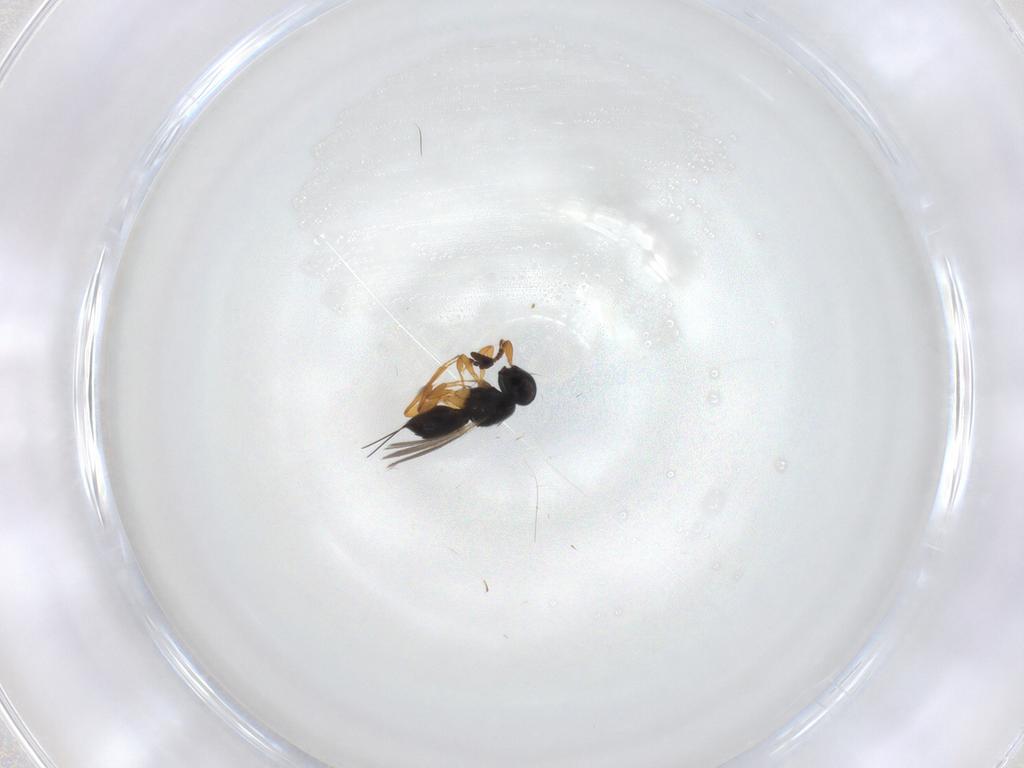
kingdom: Animalia
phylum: Arthropoda
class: Insecta
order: Hymenoptera
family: Scelionidae
